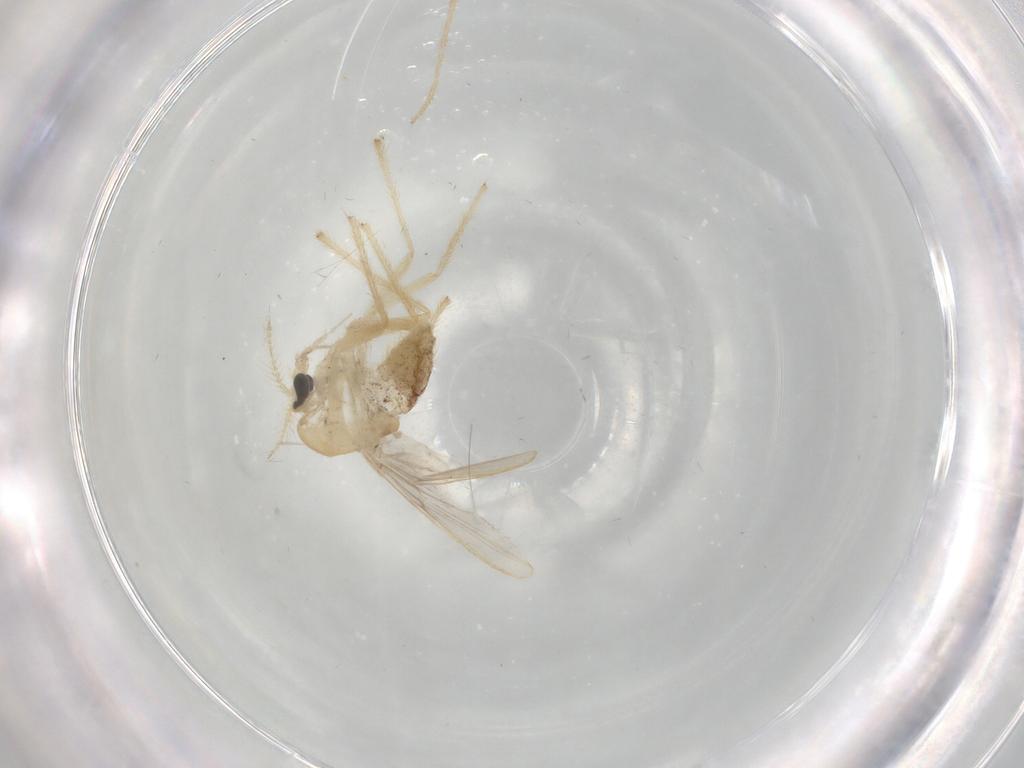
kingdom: Animalia
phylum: Arthropoda
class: Insecta
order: Diptera
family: Chironomidae
